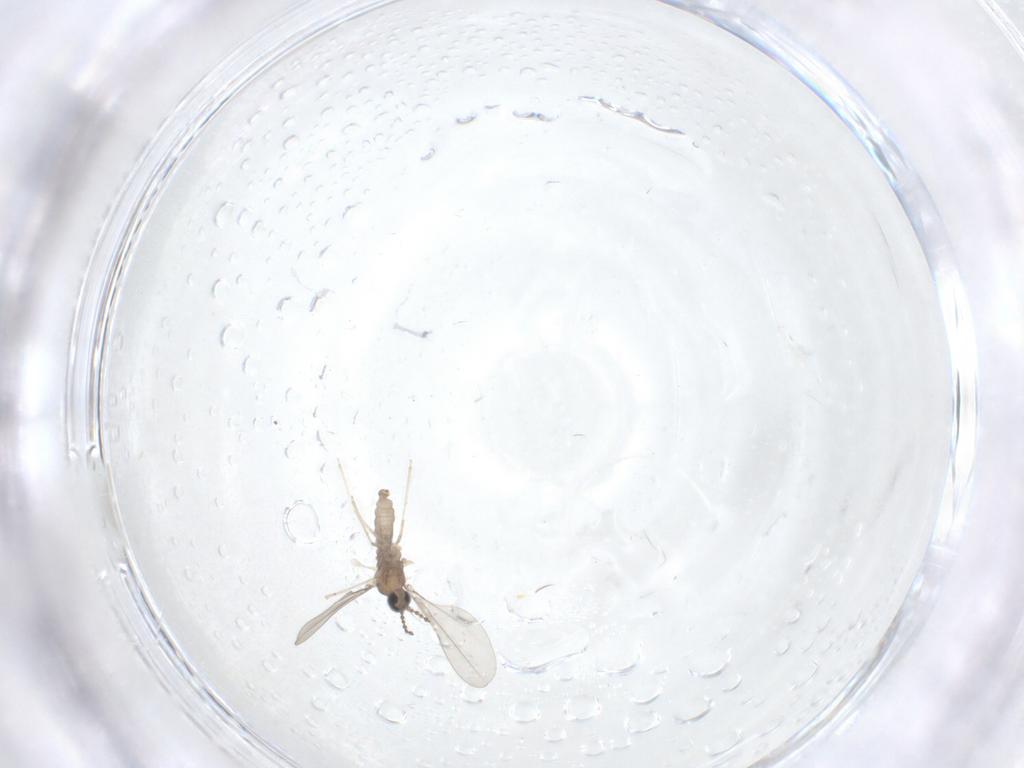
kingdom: Animalia
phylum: Arthropoda
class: Insecta
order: Diptera
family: Cecidomyiidae
